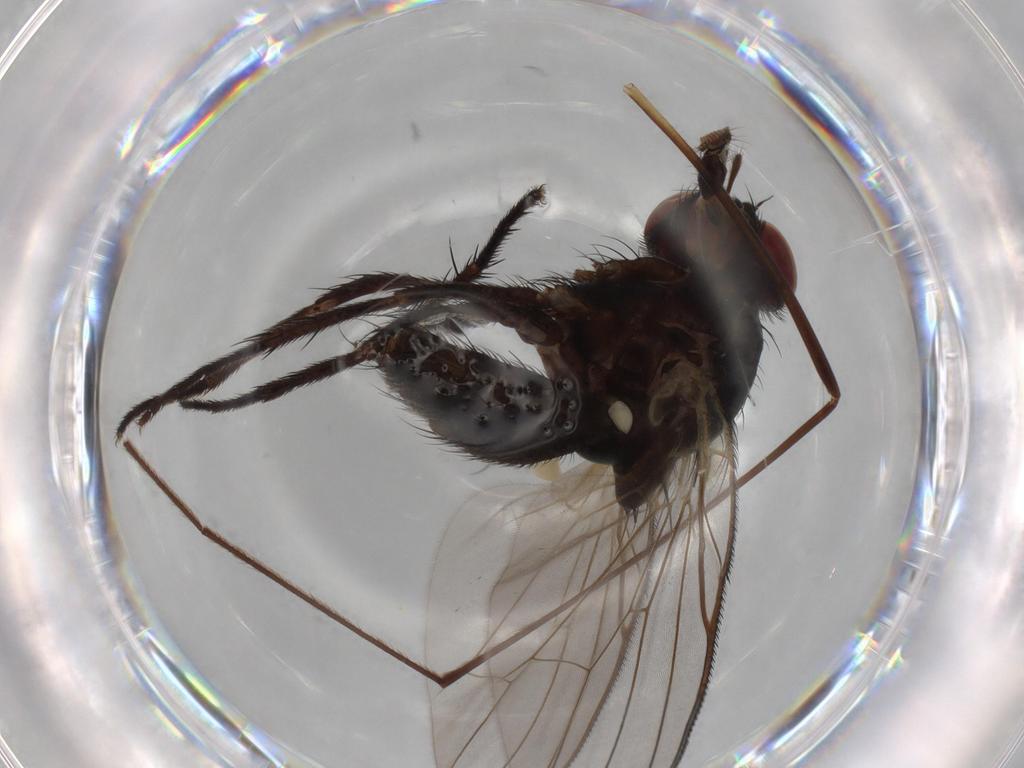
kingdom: Animalia
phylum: Arthropoda
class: Insecta
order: Diptera
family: Fannia
